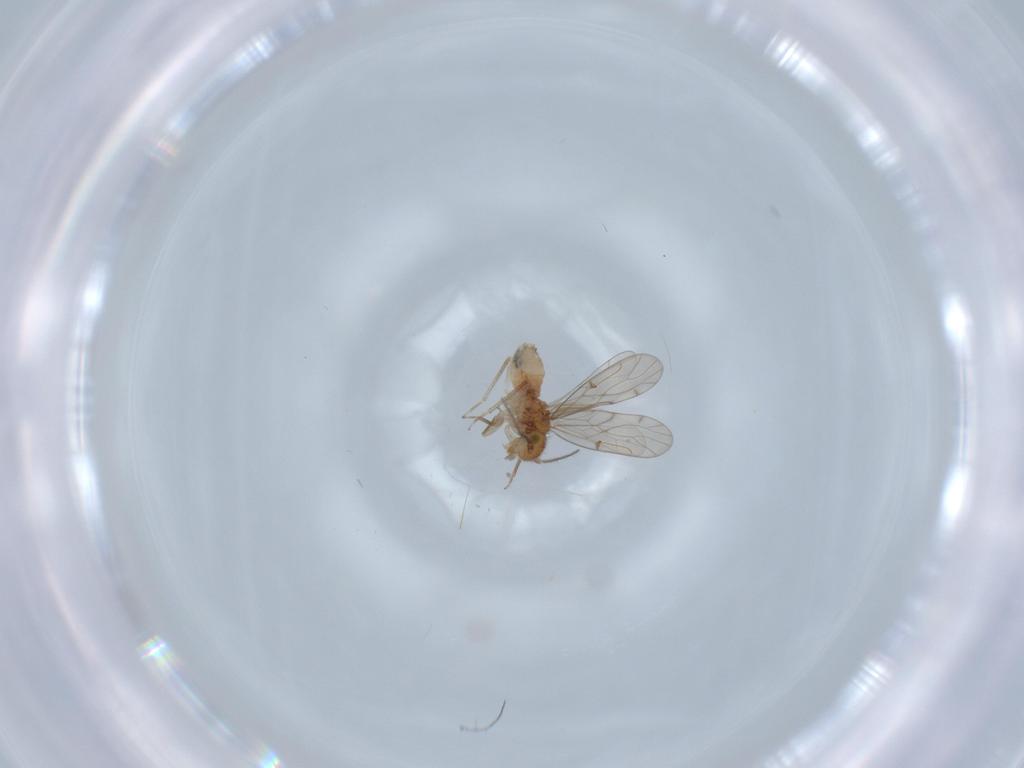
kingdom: Animalia
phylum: Arthropoda
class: Insecta
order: Psocodea
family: Ectopsocidae
